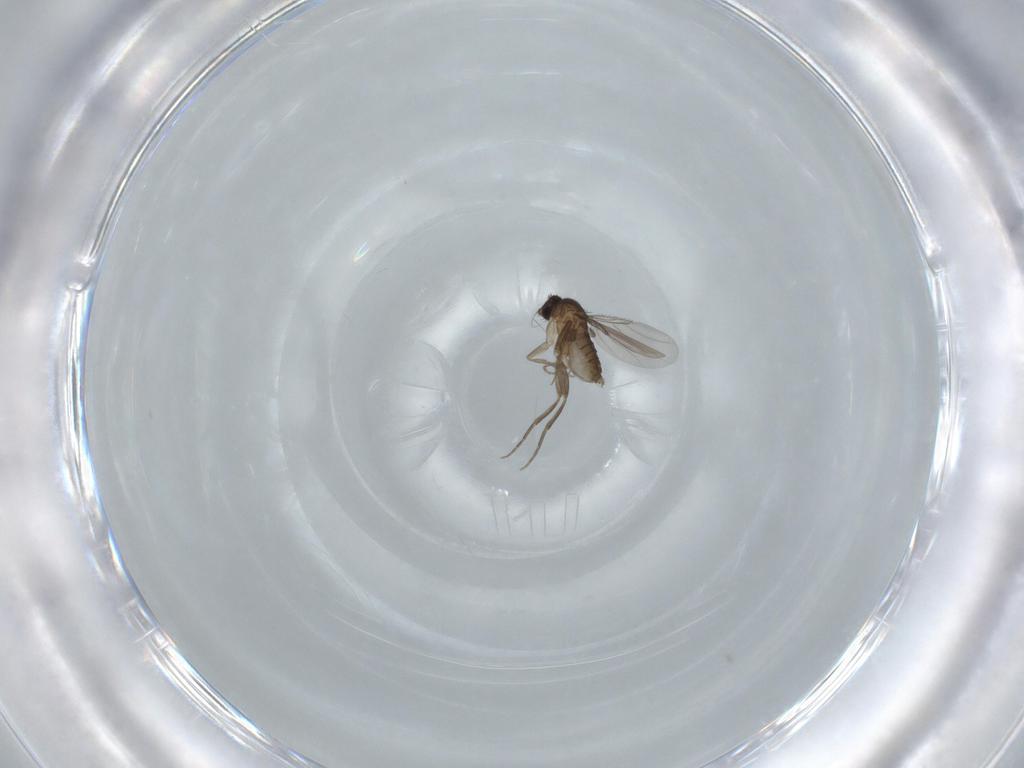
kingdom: Animalia
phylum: Arthropoda
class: Insecta
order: Diptera
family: Phoridae
